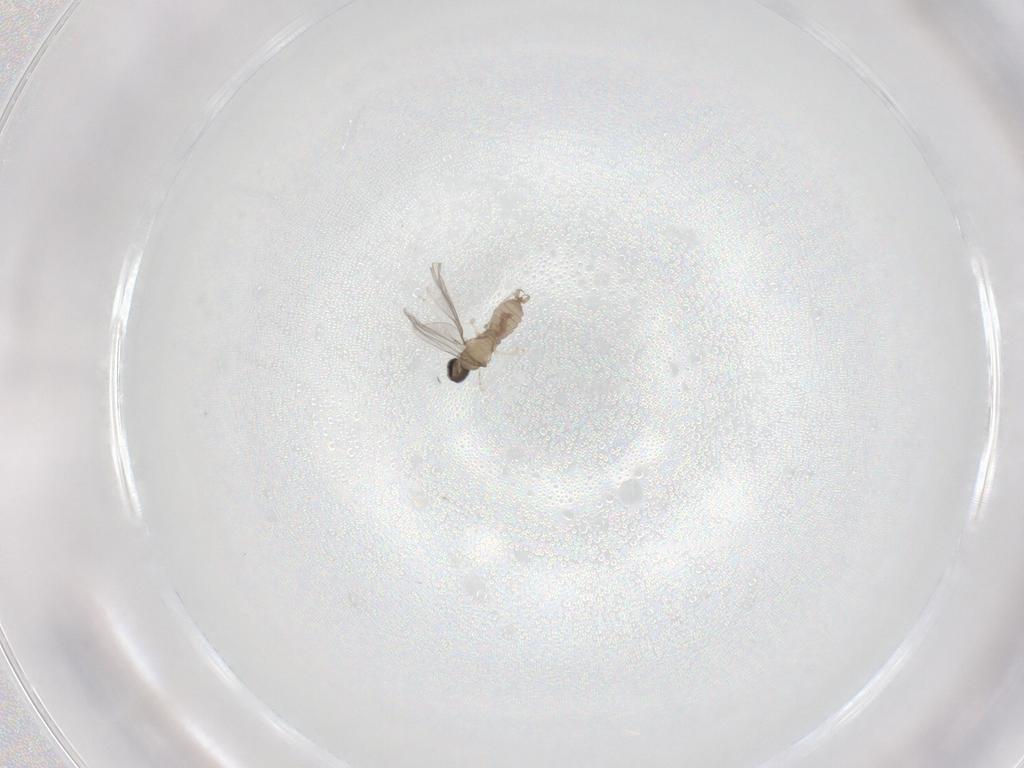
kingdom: Animalia
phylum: Arthropoda
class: Insecta
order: Diptera
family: Cecidomyiidae
